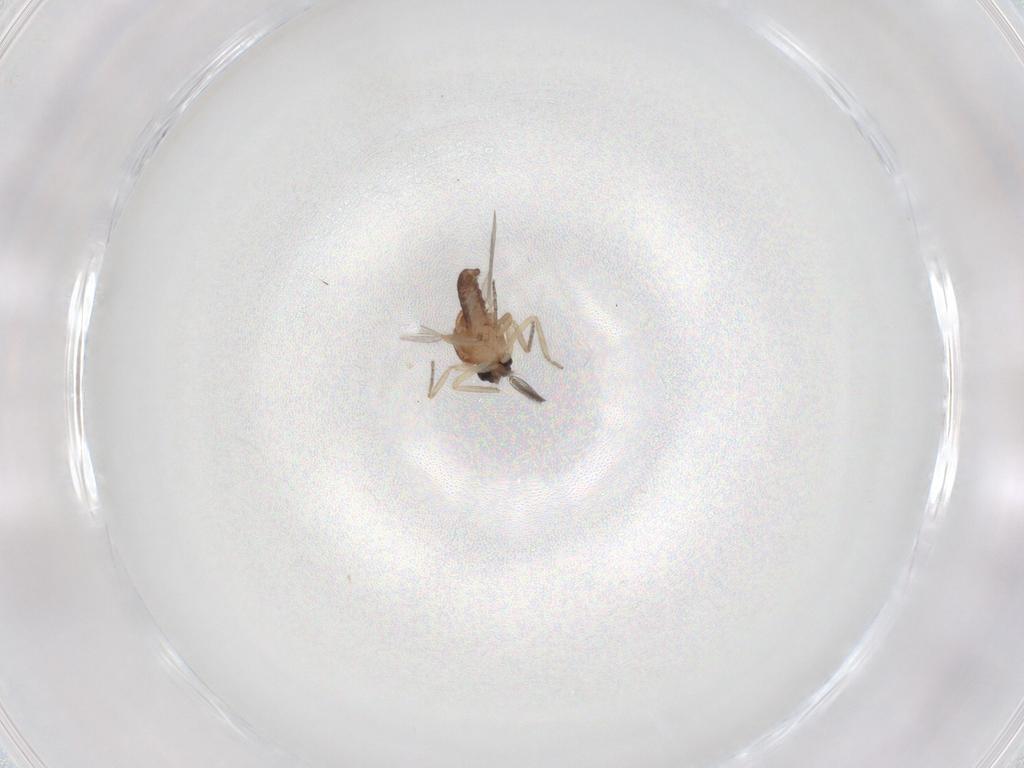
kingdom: Animalia
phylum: Arthropoda
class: Insecta
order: Diptera
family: Ceratopogonidae
